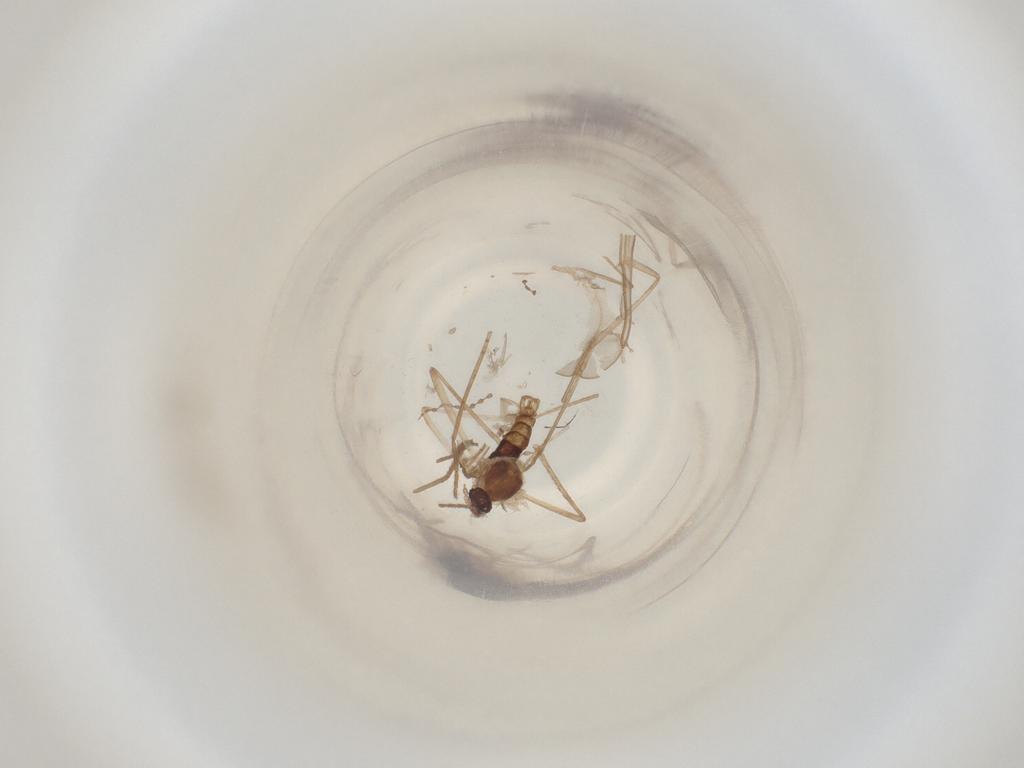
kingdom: Animalia
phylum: Arthropoda
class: Insecta
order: Diptera
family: Cecidomyiidae
